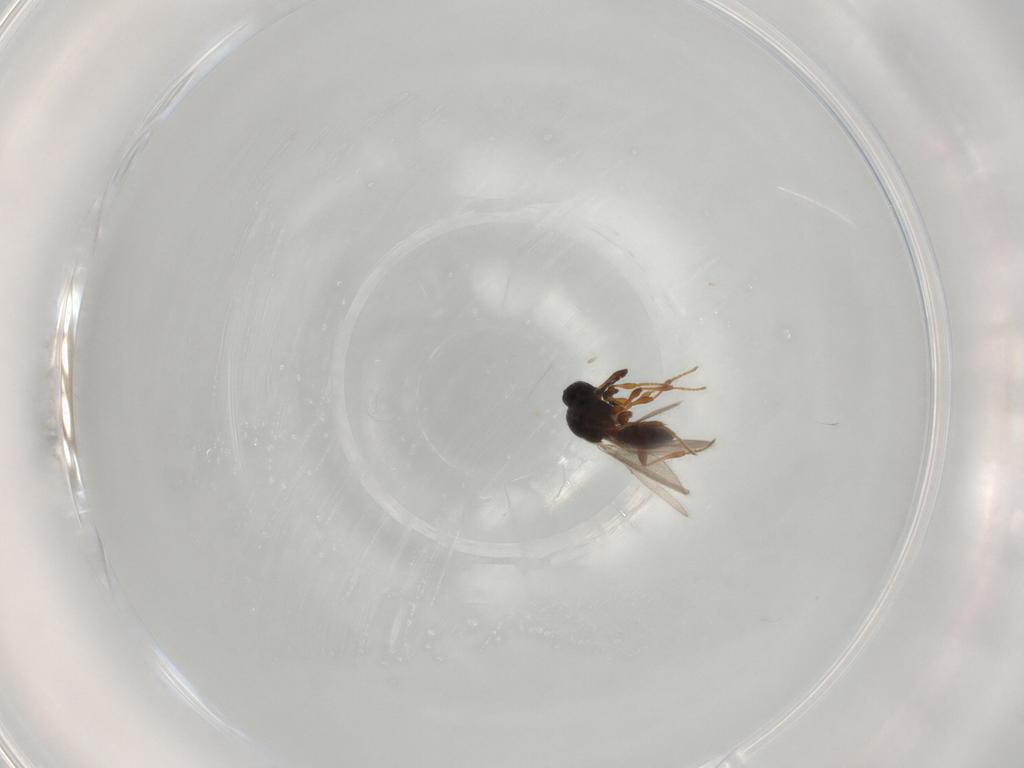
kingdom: Animalia
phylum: Arthropoda
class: Insecta
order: Hymenoptera
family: Platygastridae
